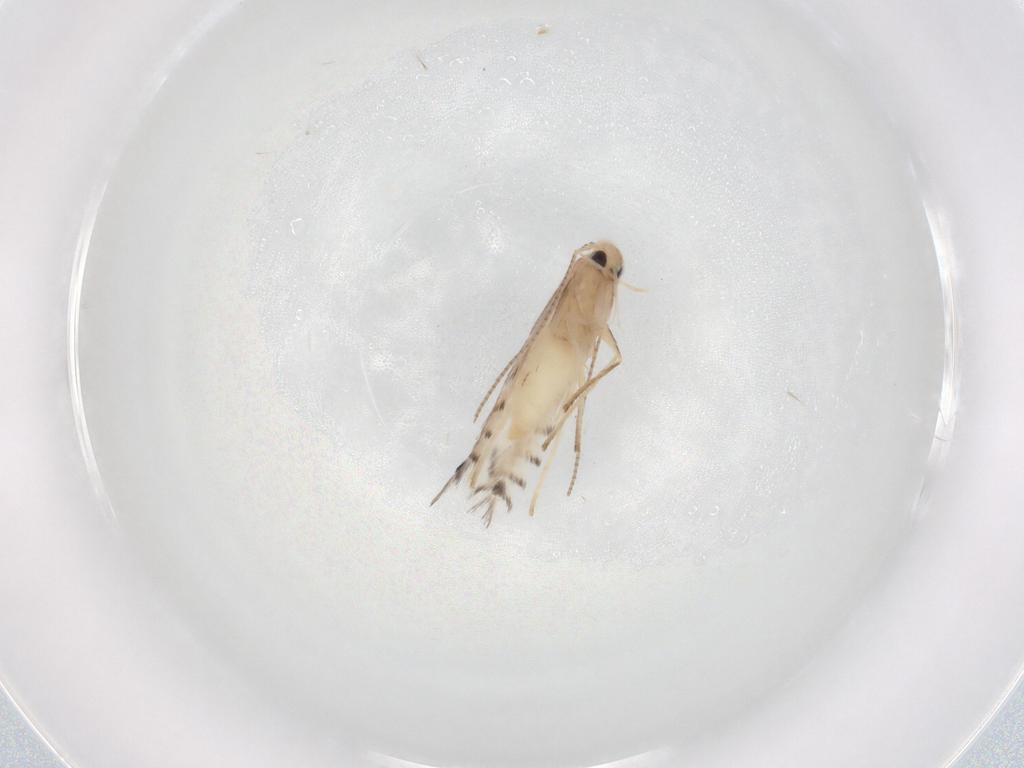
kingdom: Animalia
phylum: Arthropoda
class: Insecta
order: Lepidoptera
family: Gracillariidae
